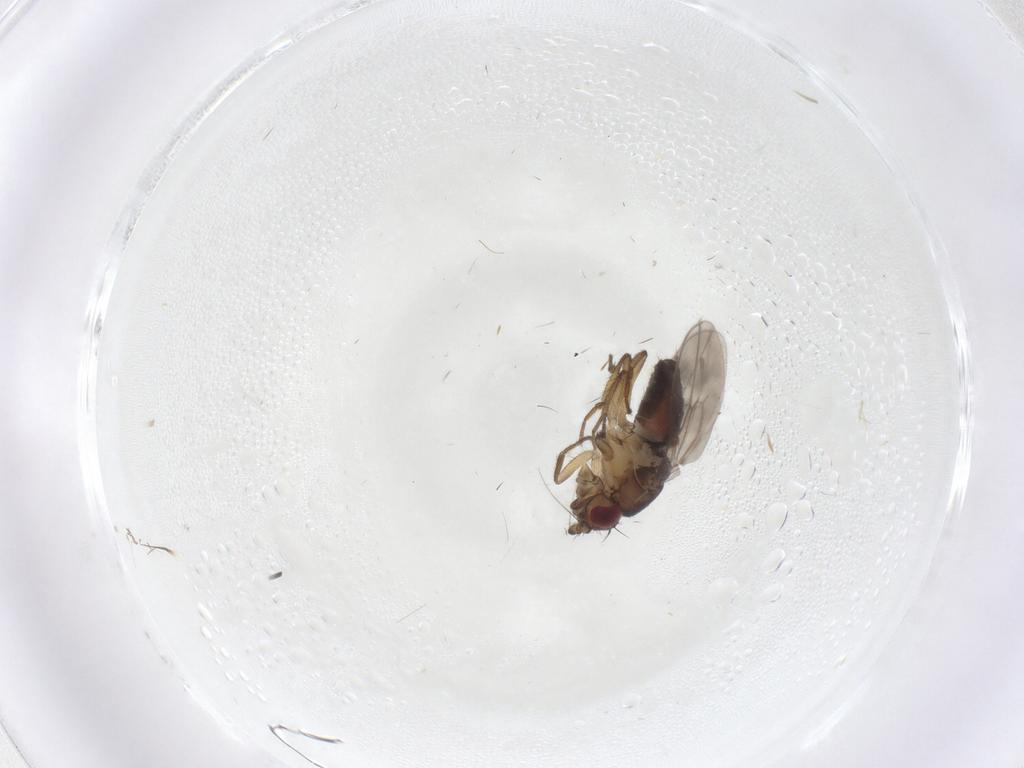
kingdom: Animalia
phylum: Arthropoda
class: Insecta
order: Diptera
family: Sphaeroceridae
